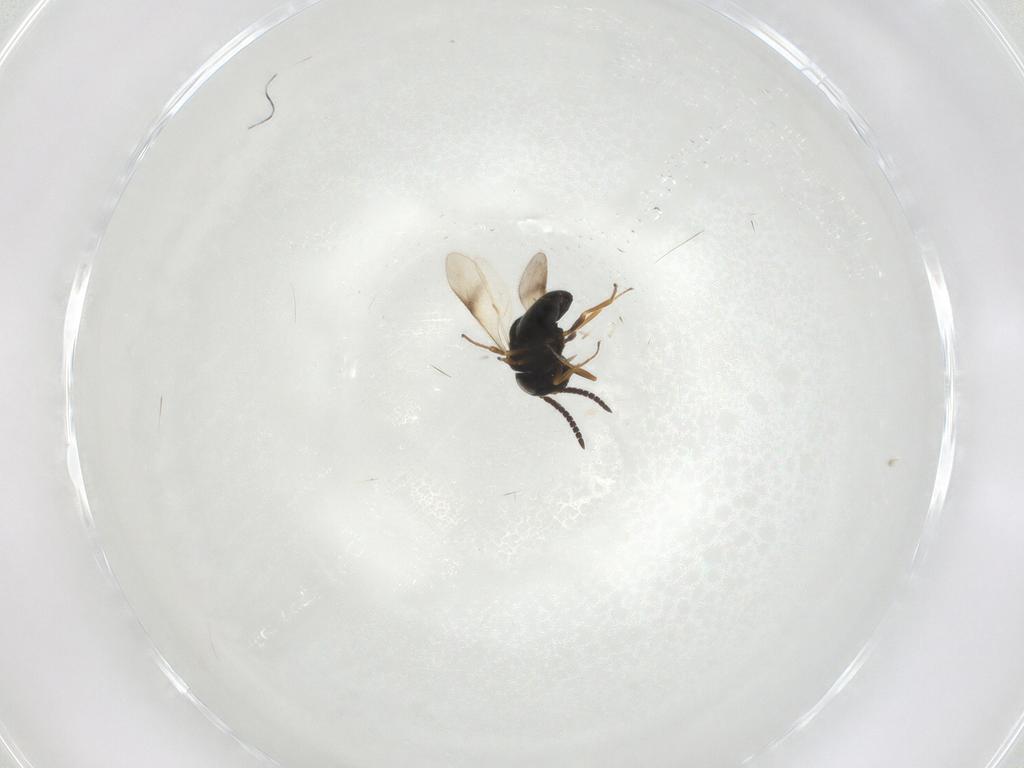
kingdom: Animalia
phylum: Arthropoda
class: Insecta
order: Hymenoptera
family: Scelionidae
